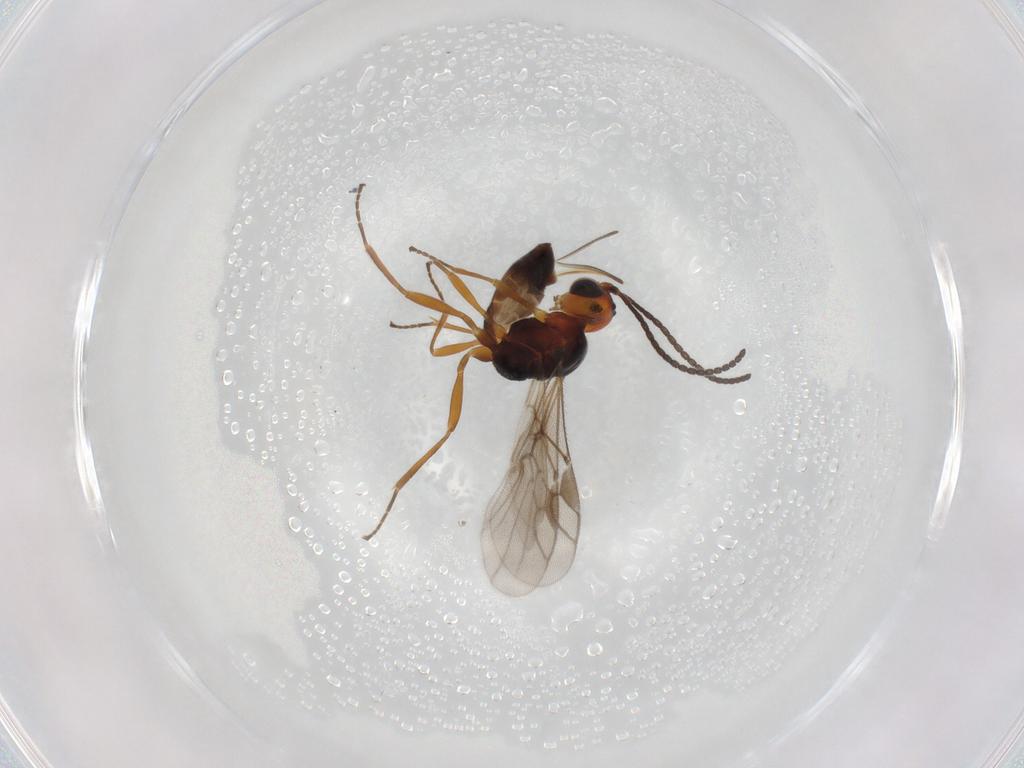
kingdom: Animalia
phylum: Arthropoda
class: Insecta
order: Hymenoptera
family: Braconidae
